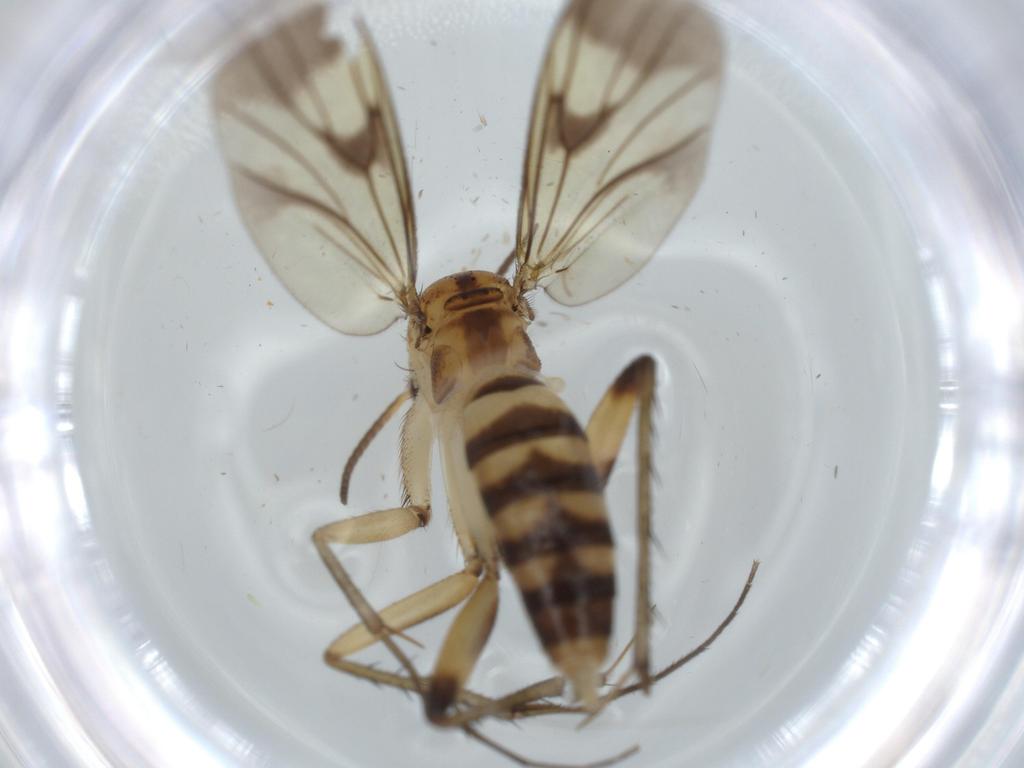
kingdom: Animalia
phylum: Arthropoda
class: Insecta
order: Diptera
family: Mycetophilidae
